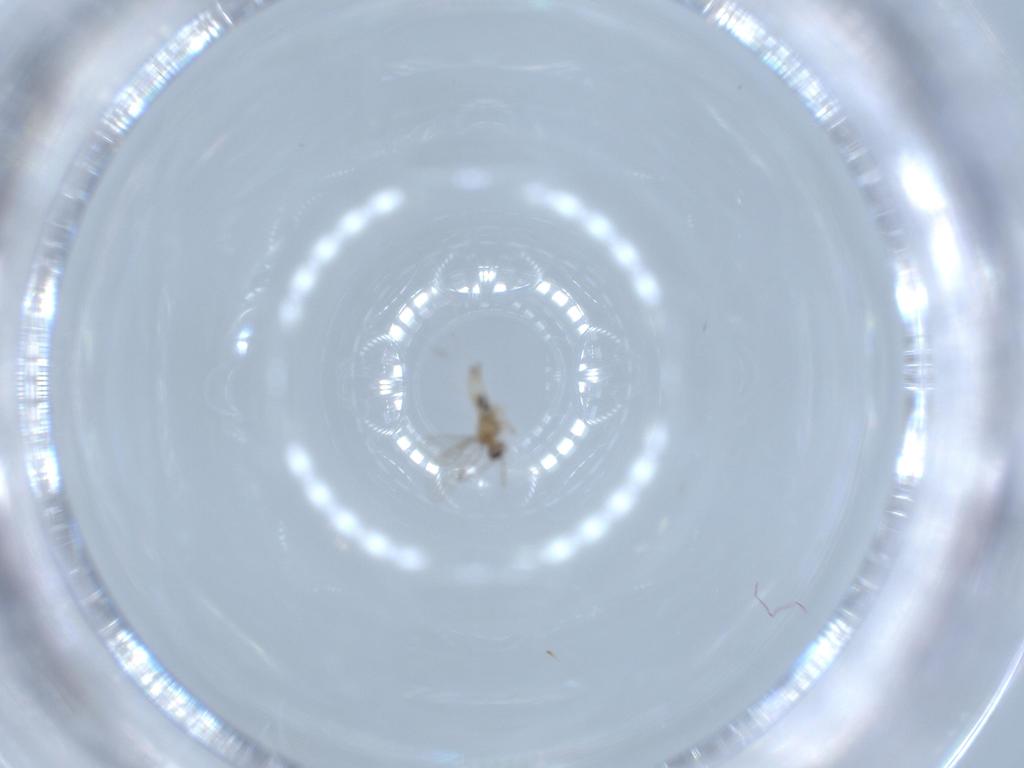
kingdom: Animalia
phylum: Arthropoda
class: Insecta
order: Diptera
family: Cecidomyiidae
